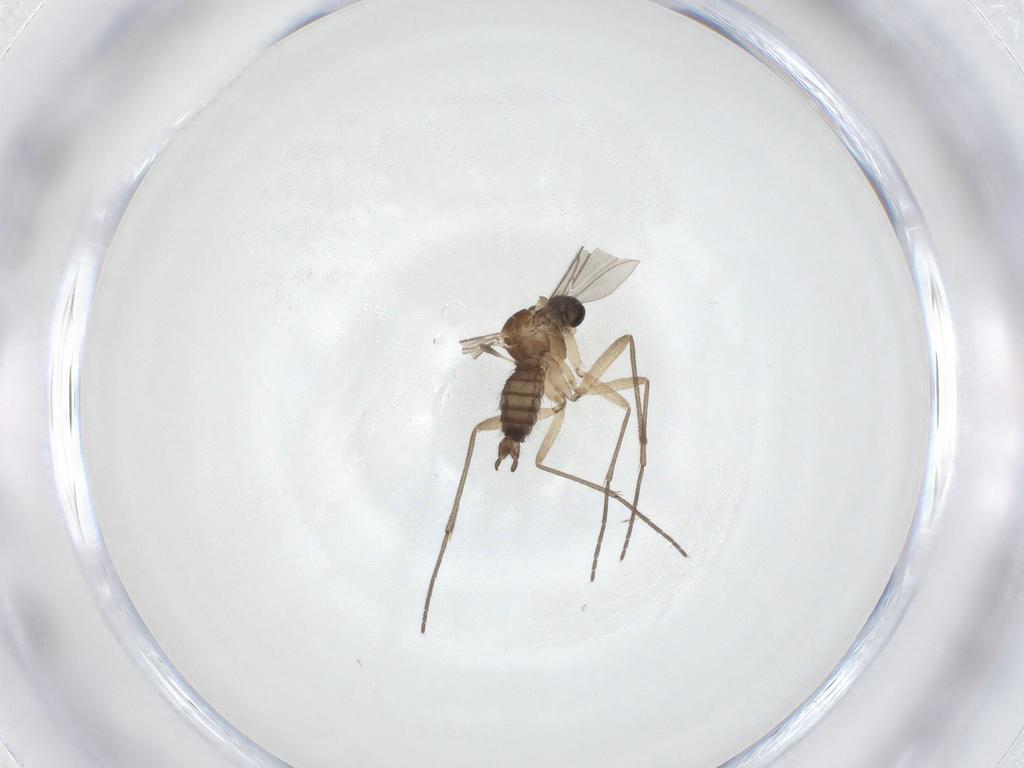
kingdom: Animalia
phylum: Arthropoda
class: Insecta
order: Diptera
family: Sciaridae
